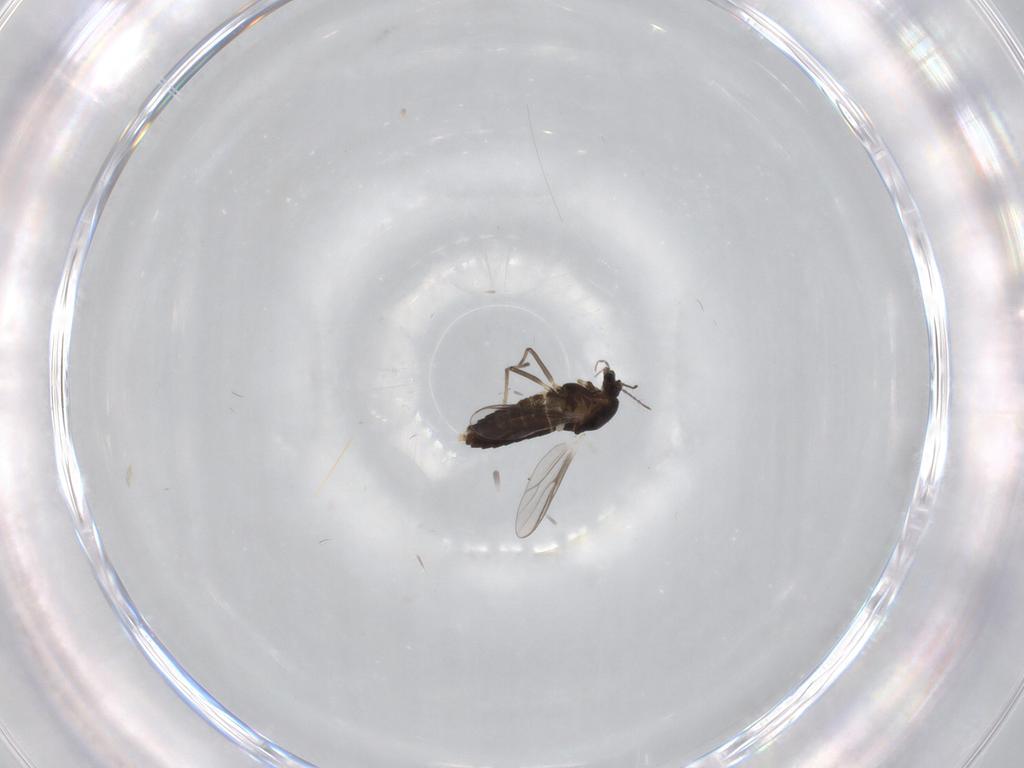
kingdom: Animalia
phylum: Arthropoda
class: Insecta
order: Diptera
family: Chironomidae
